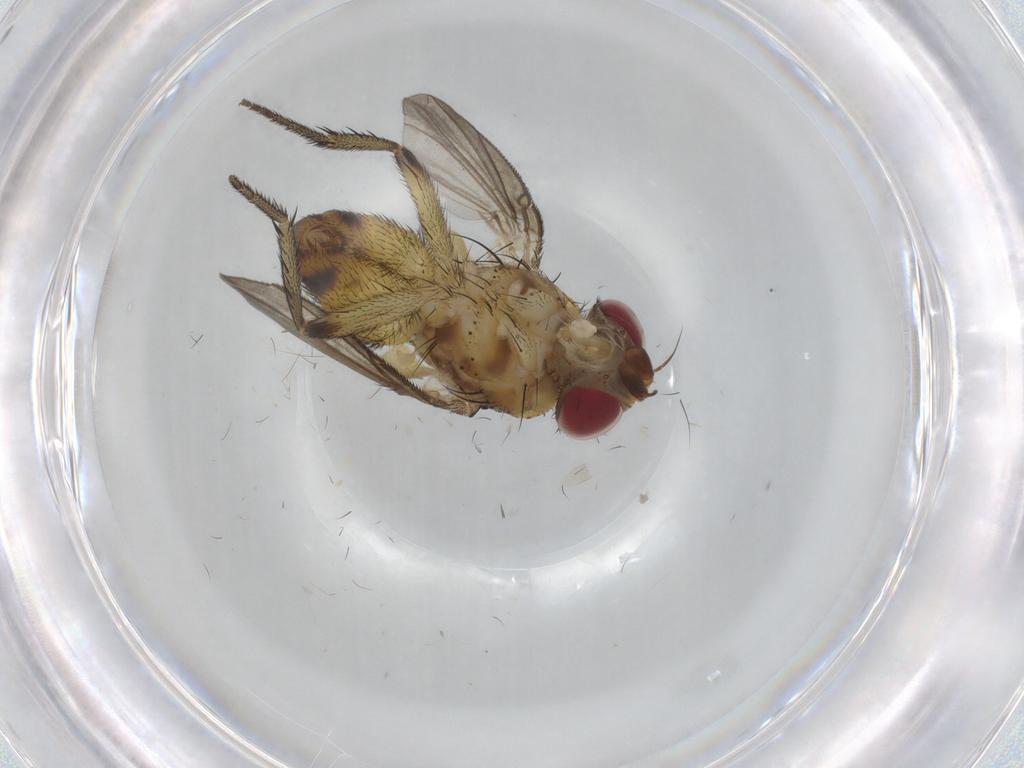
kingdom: Animalia
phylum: Arthropoda
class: Insecta
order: Diptera
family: Tachinidae
